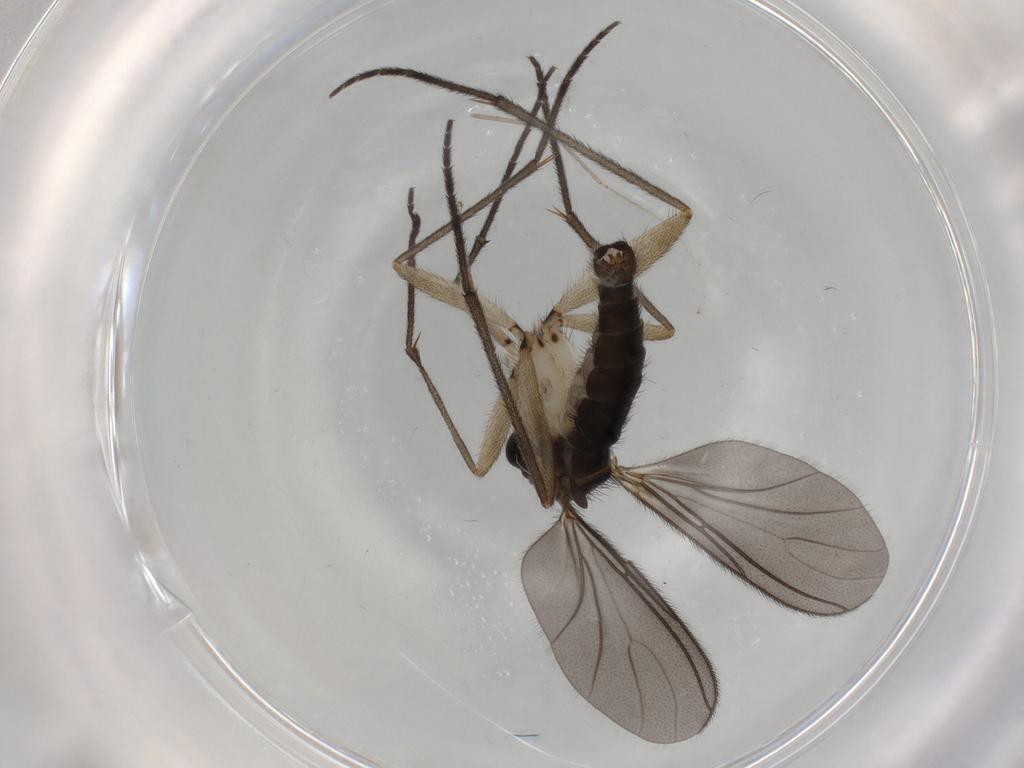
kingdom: Animalia
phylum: Arthropoda
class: Insecta
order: Diptera
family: Sciaridae
